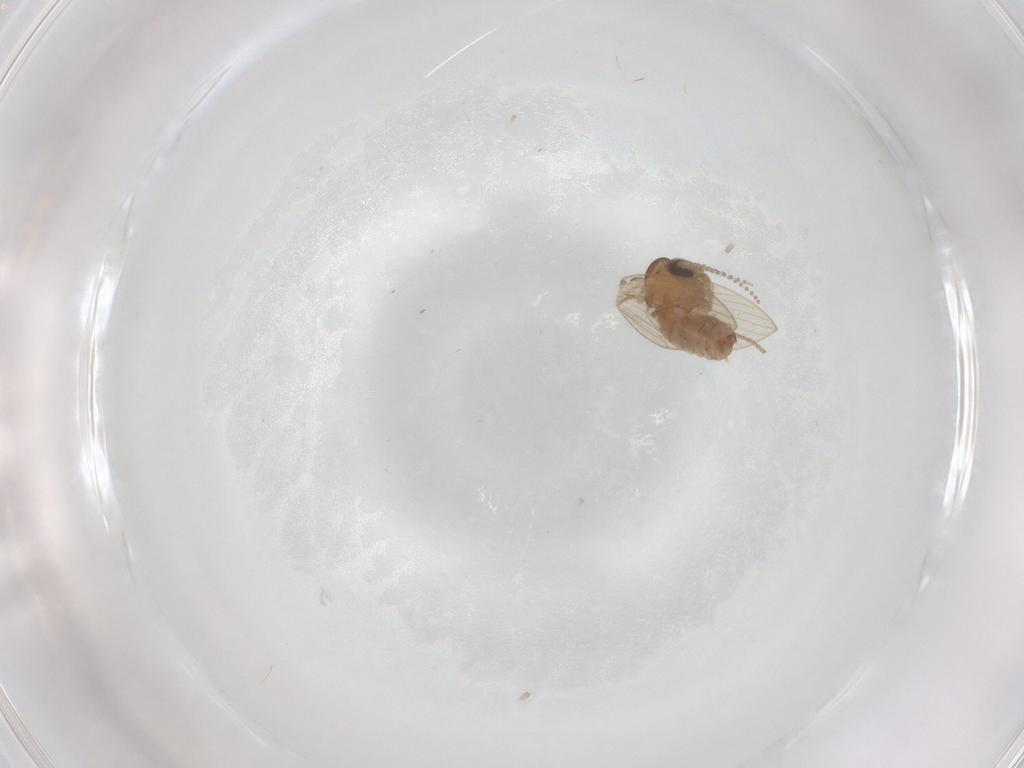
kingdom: Animalia
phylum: Arthropoda
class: Insecta
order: Diptera
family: Psychodidae
